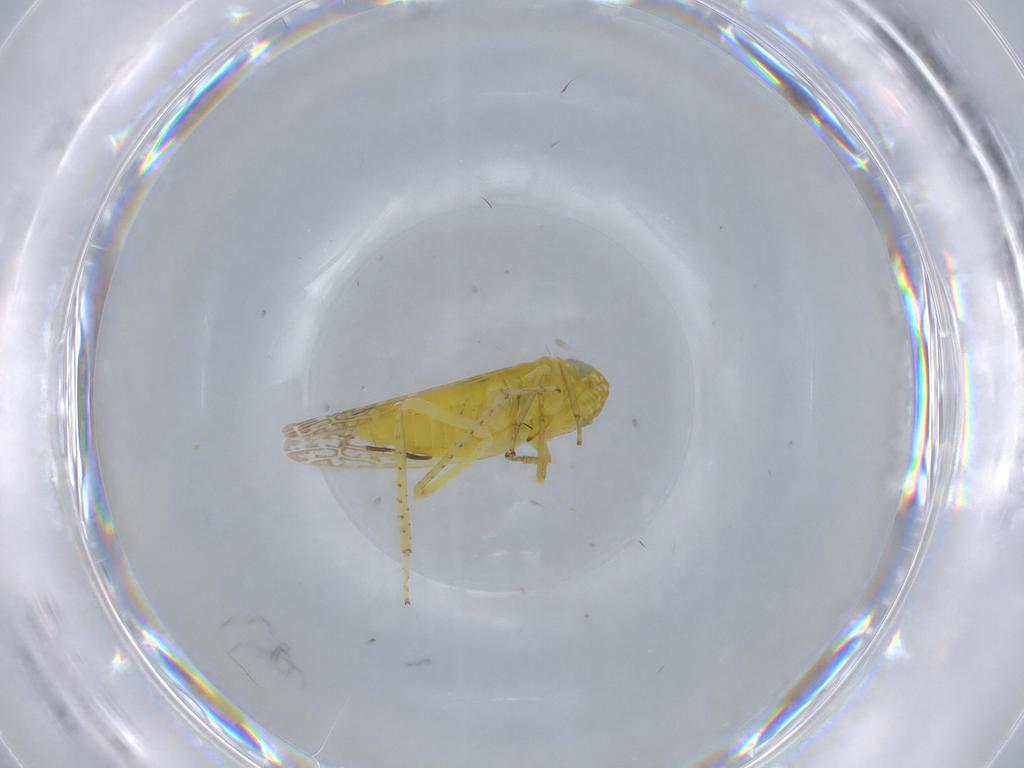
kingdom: Animalia
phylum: Arthropoda
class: Insecta
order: Hemiptera
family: Cicadellidae
